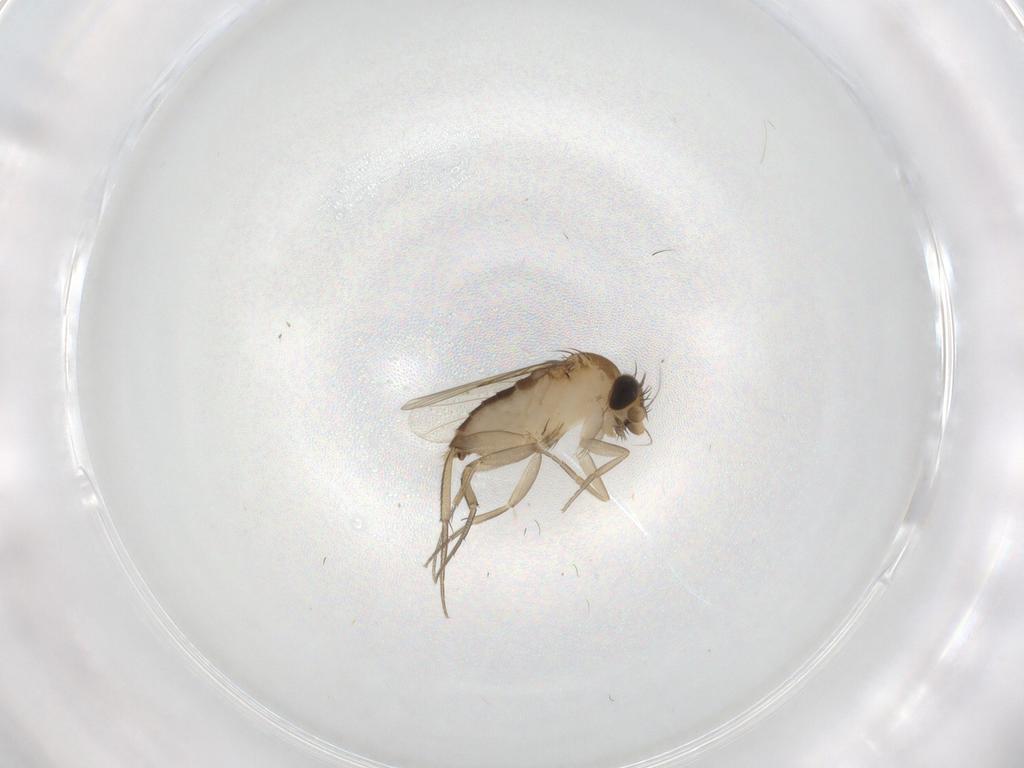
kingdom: Animalia
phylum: Arthropoda
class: Insecta
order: Diptera
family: Phoridae
